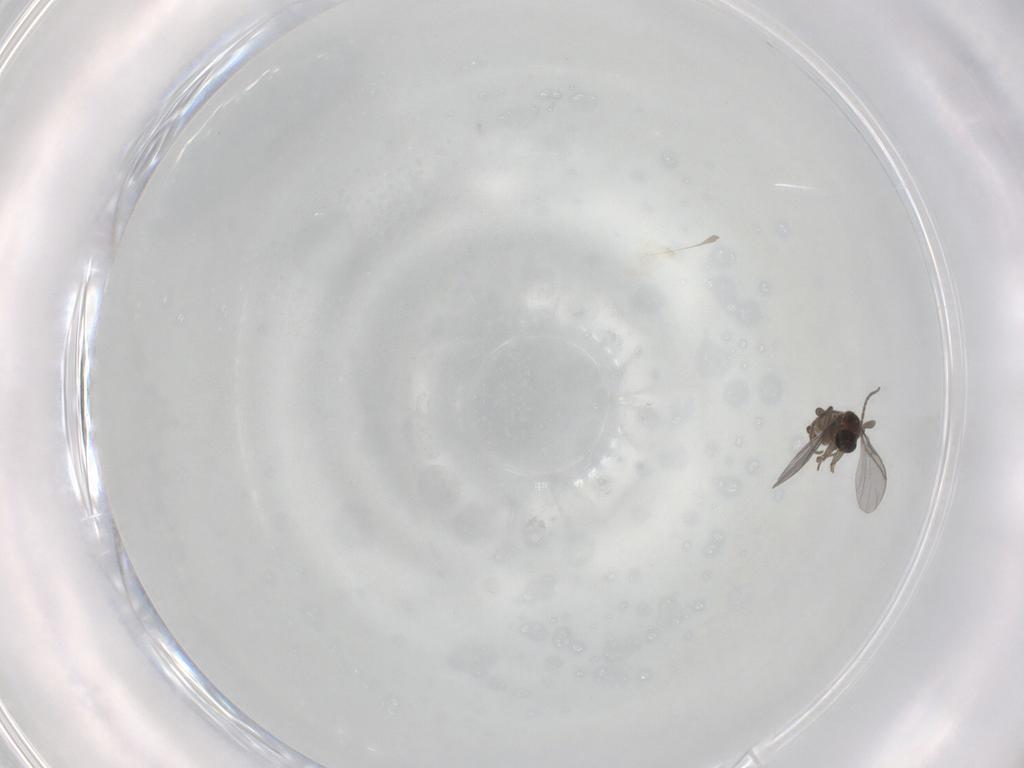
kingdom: Animalia
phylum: Arthropoda
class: Insecta
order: Diptera
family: Sciaridae
